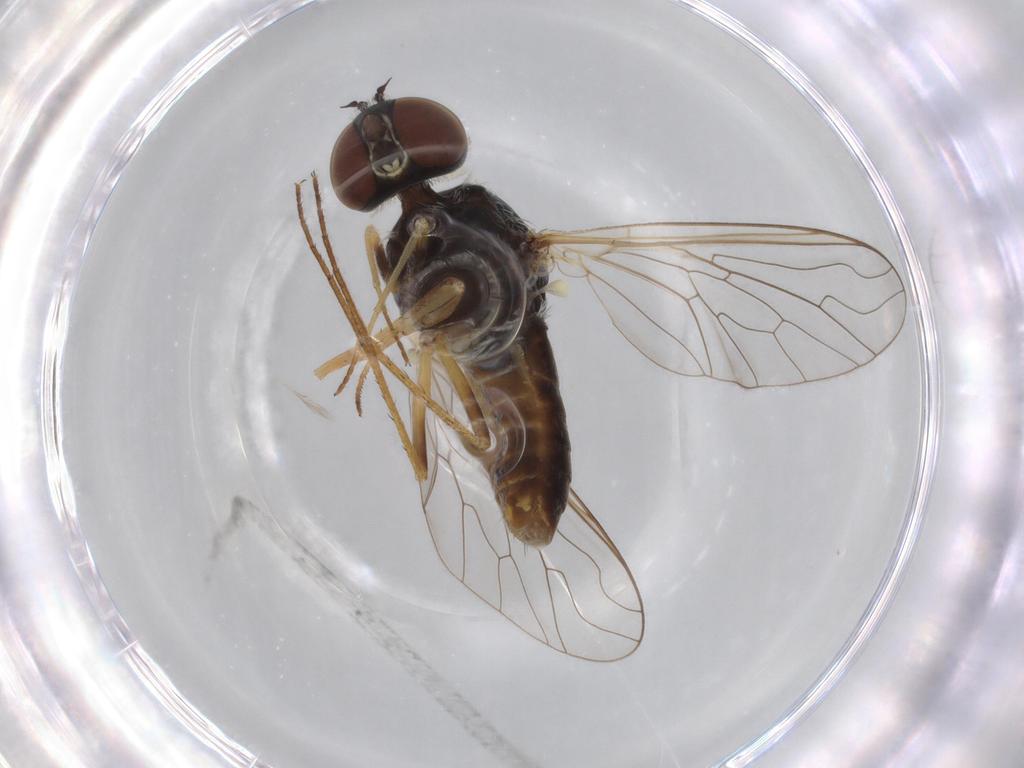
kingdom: Animalia
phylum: Arthropoda
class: Insecta
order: Diptera
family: Bombyliidae
